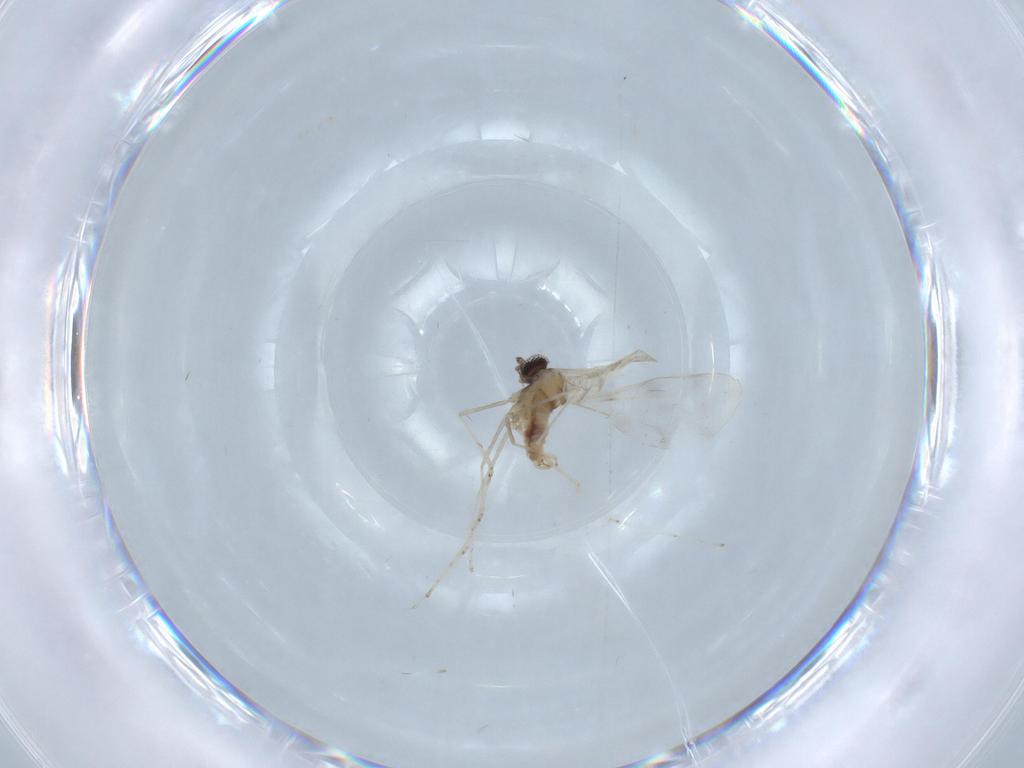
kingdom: Animalia
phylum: Arthropoda
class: Insecta
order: Diptera
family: Cecidomyiidae
